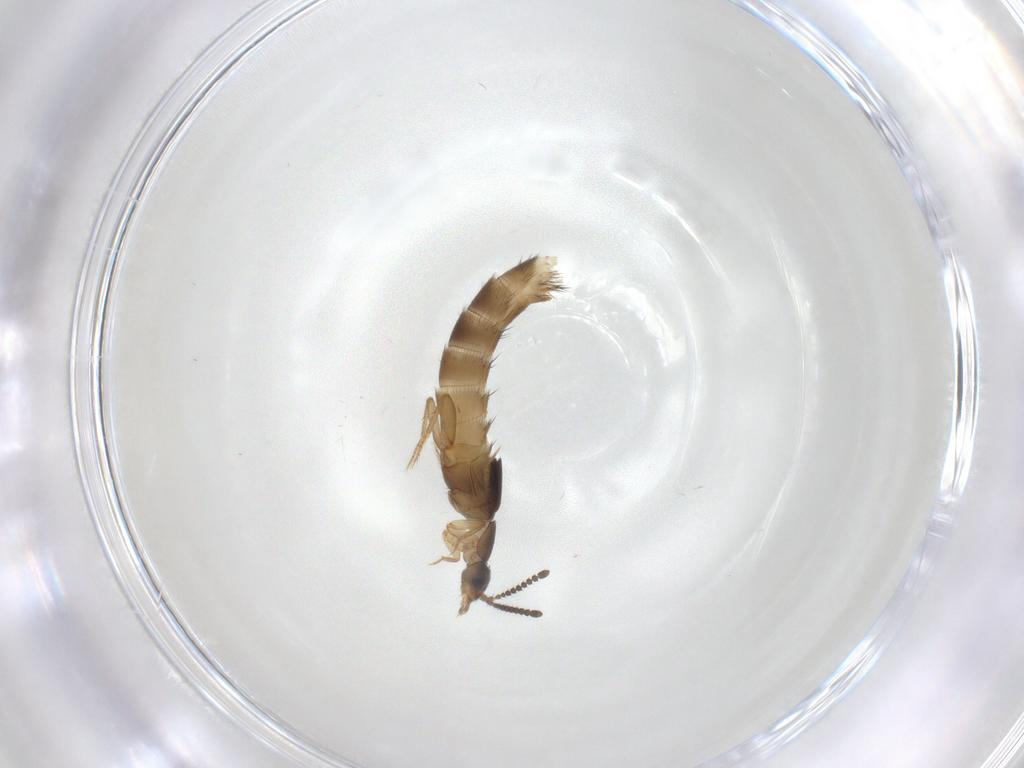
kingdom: Animalia
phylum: Arthropoda
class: Insecta
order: Coleoptera
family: Staphylinidae
